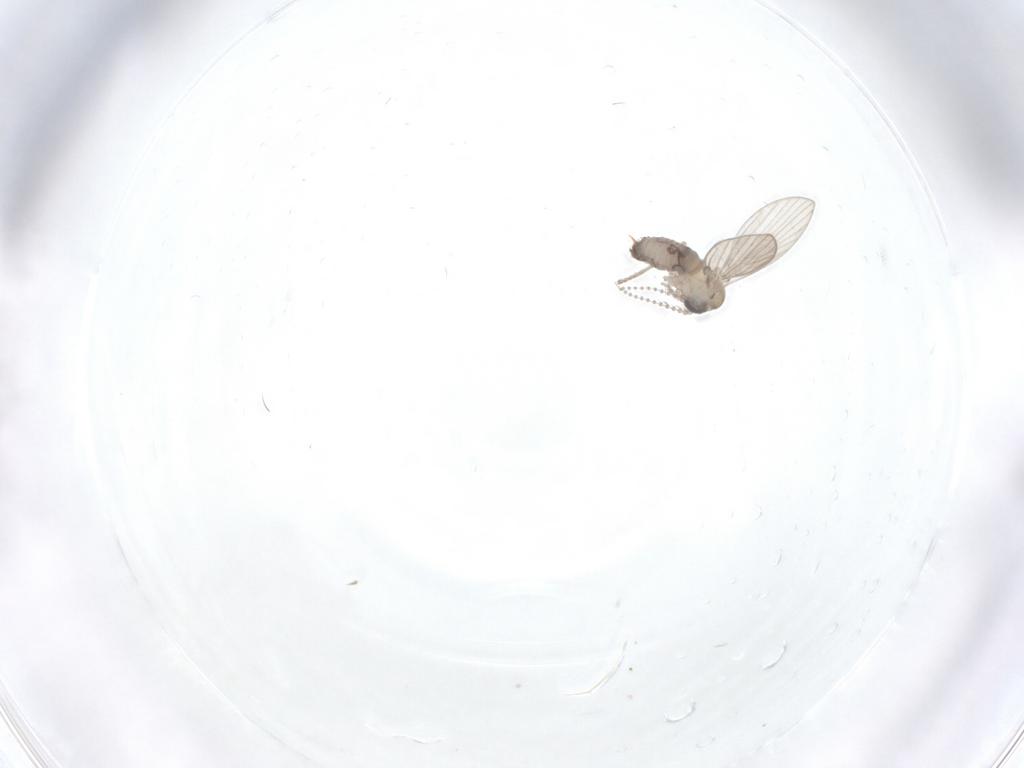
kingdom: Animalia
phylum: Arthropoda
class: Insecta
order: Diptera
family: Psychodidae
